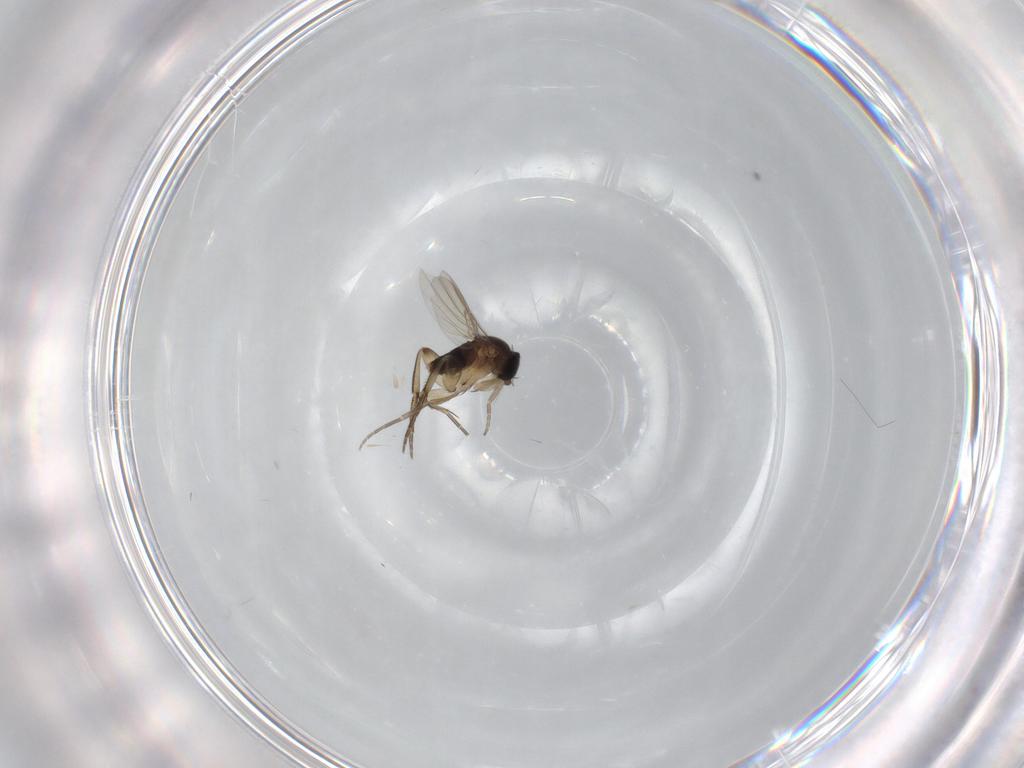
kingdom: Animalia
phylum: Arthropoda
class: Insecta
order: Diptera
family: Phoridae
